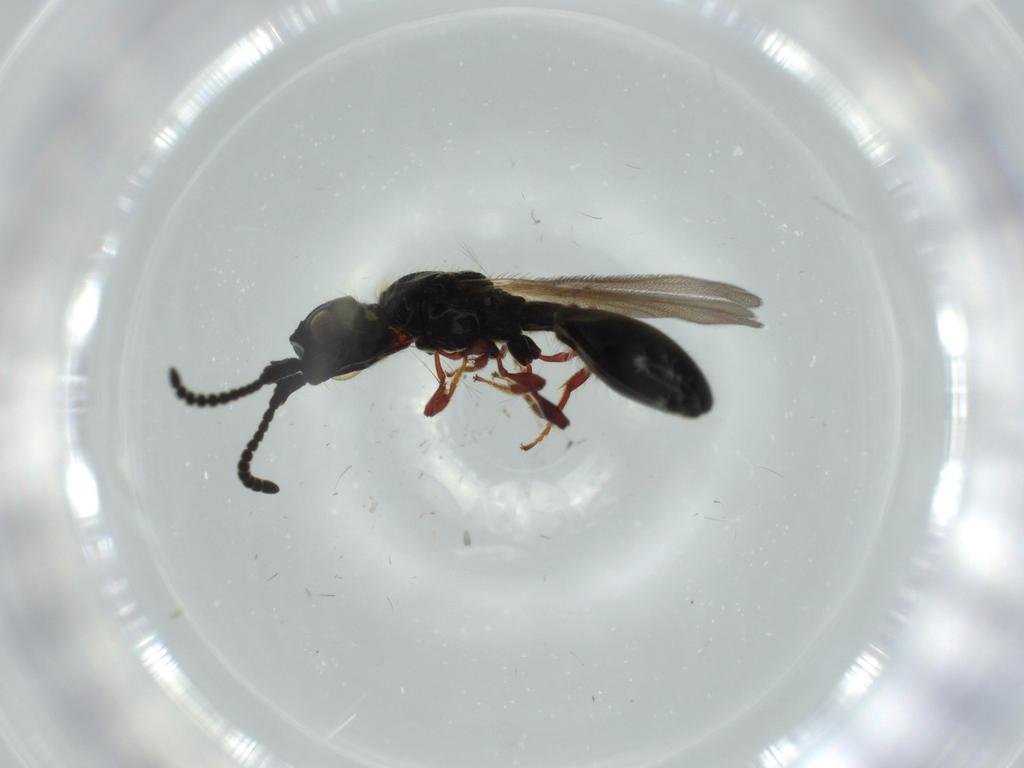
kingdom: Animalia
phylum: Arthropoda
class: Insecta
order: Hymenoptera
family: Diapriidae
